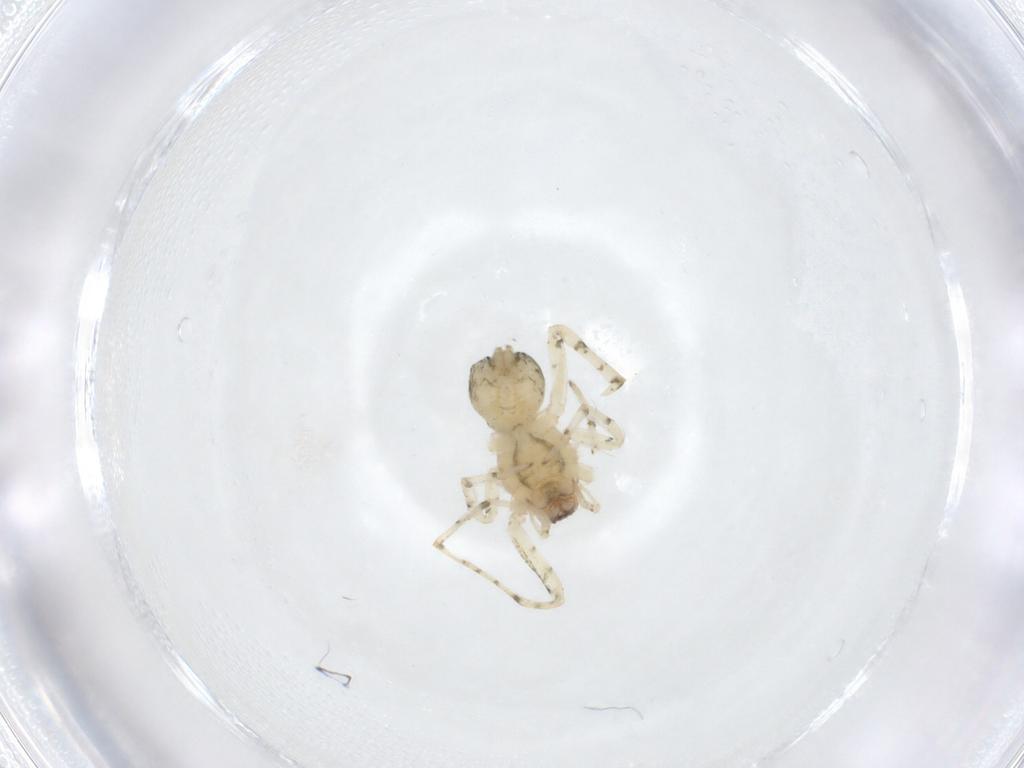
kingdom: Animalia
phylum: Arthropoda
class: Arachnida
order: Araneae
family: Anyphaenidae
